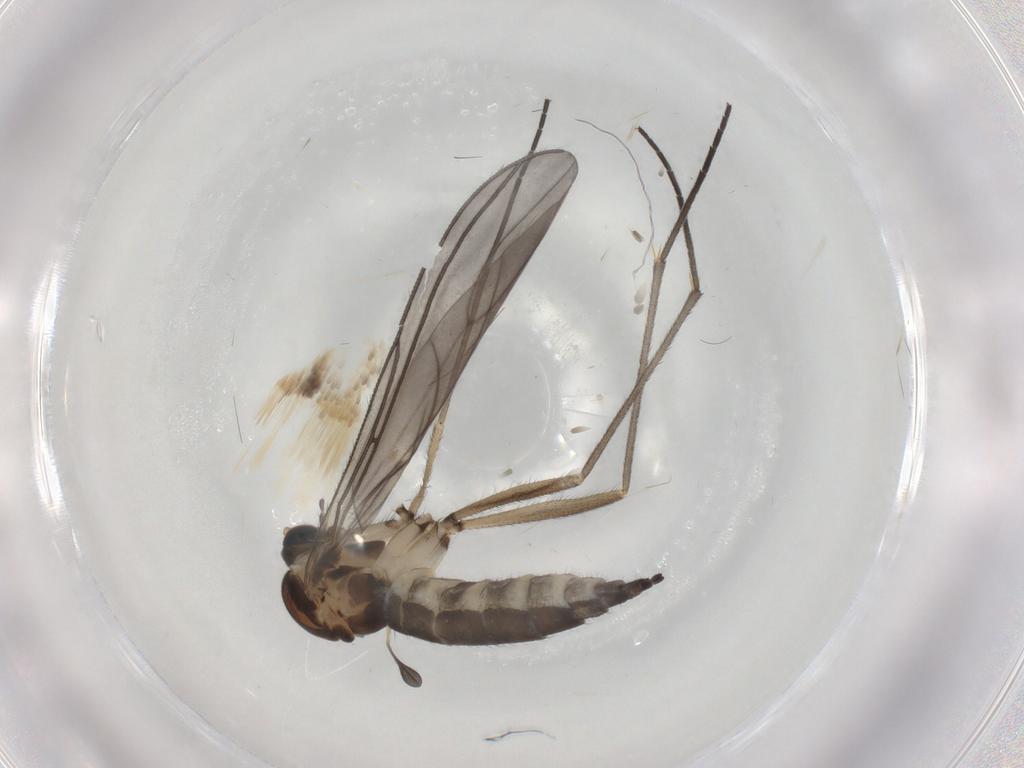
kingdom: Animalia
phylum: Arthropoda
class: Insecta
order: Diptera
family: Sciaridae
